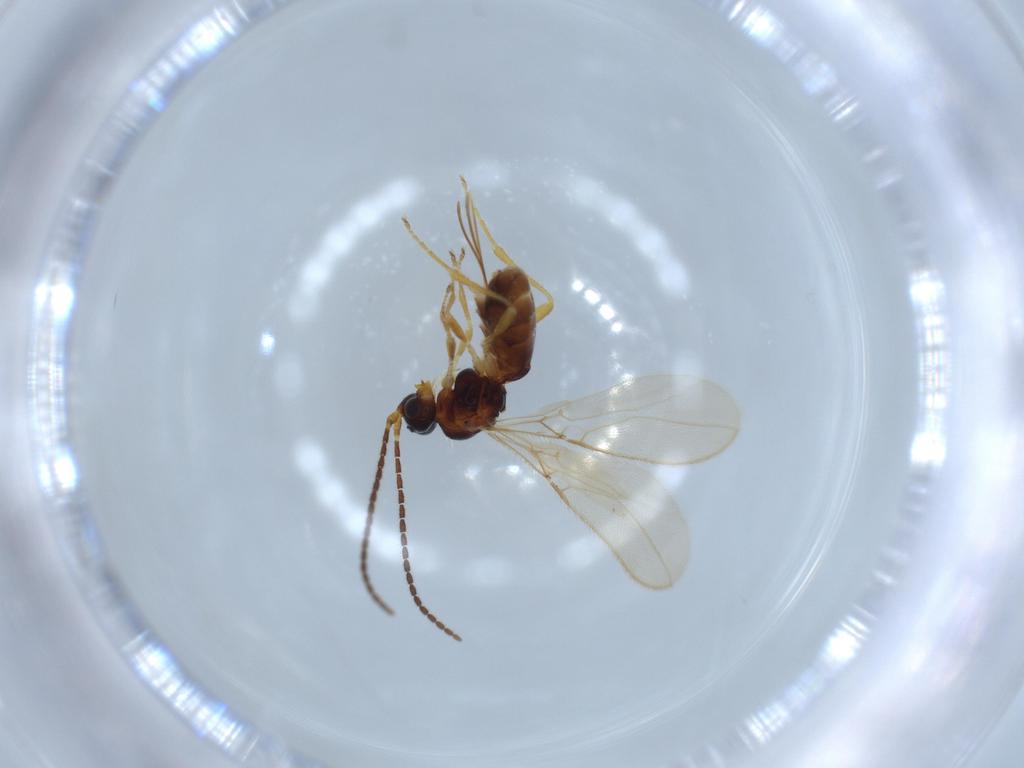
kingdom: Animalia
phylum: Arthropoda
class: Insecta
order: Hymenoptera
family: Braconidae
